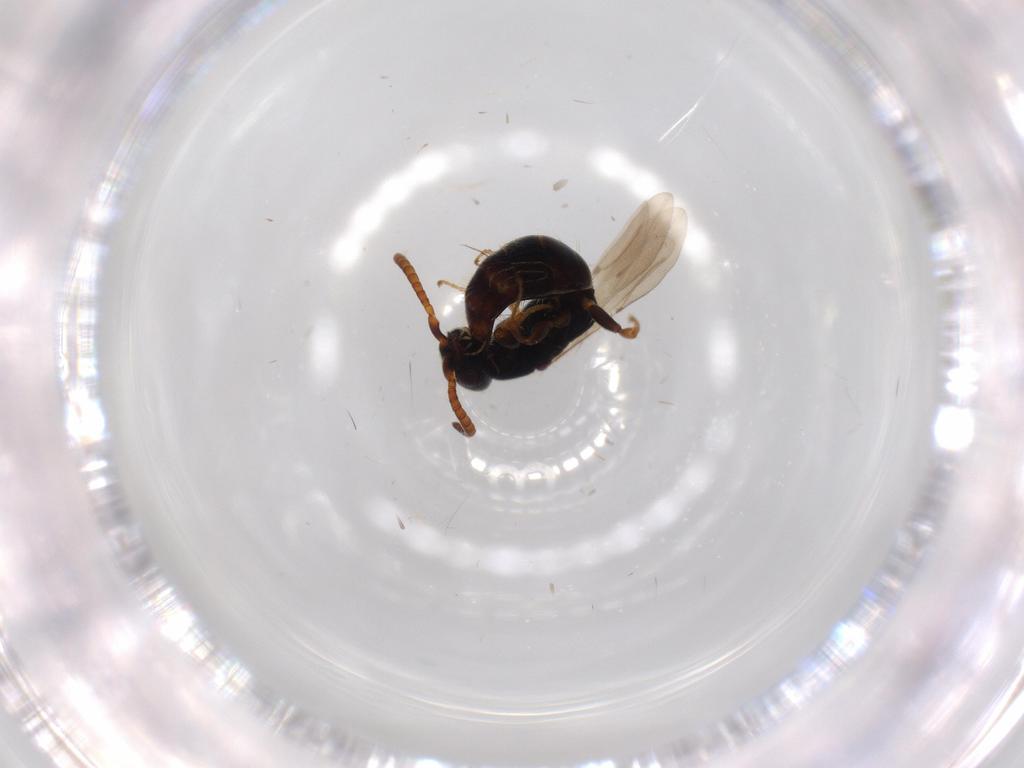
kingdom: Animalia
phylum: Arthropoda
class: Insecta
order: Hymenoptera
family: Bethylidae
